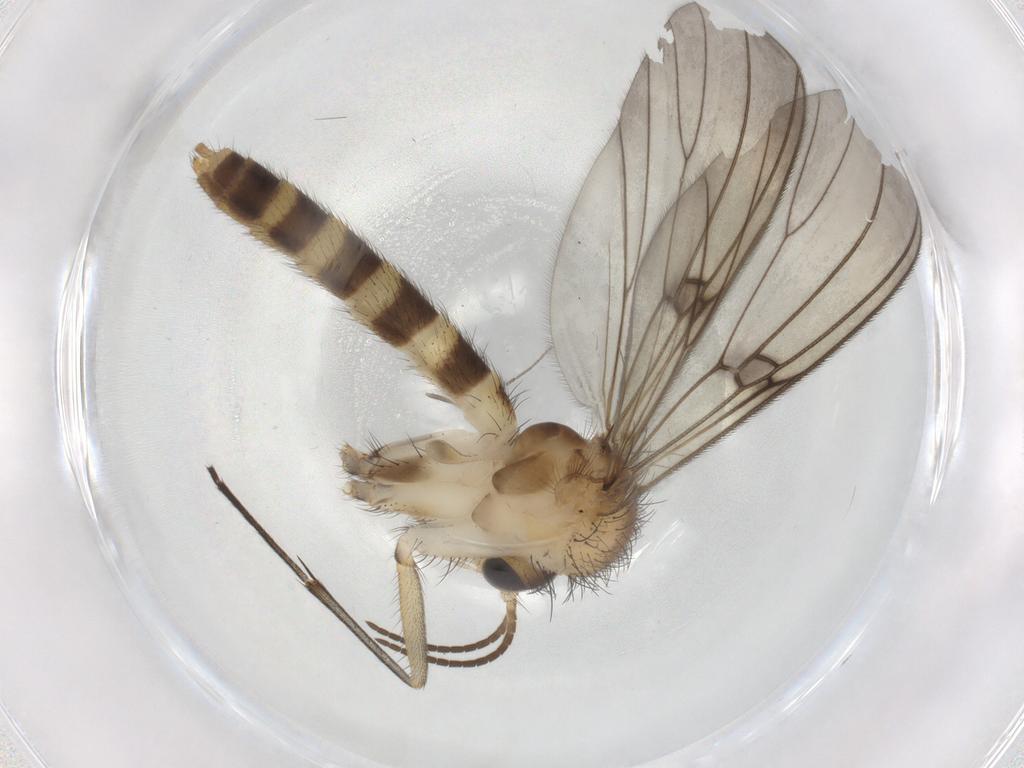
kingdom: Animalia
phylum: Arthropoda
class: Insecta
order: Diptera
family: Chironomidae
